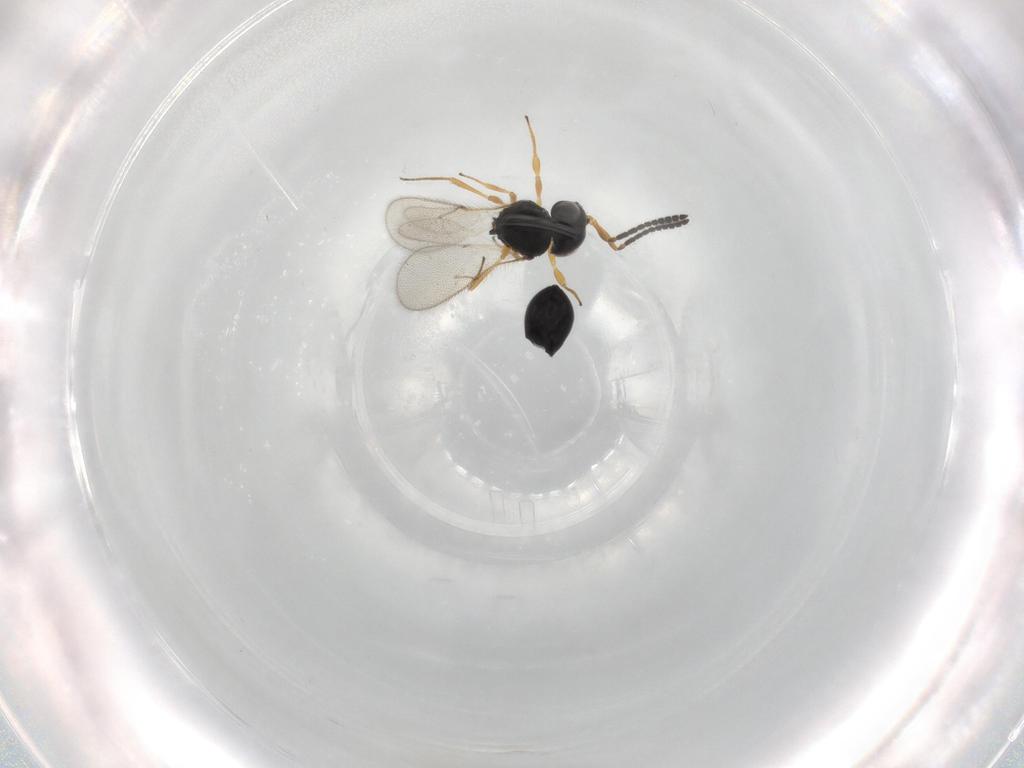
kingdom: Animalia
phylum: Arthropoda
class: Insecta
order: Hymenoptera
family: Scelionidae
